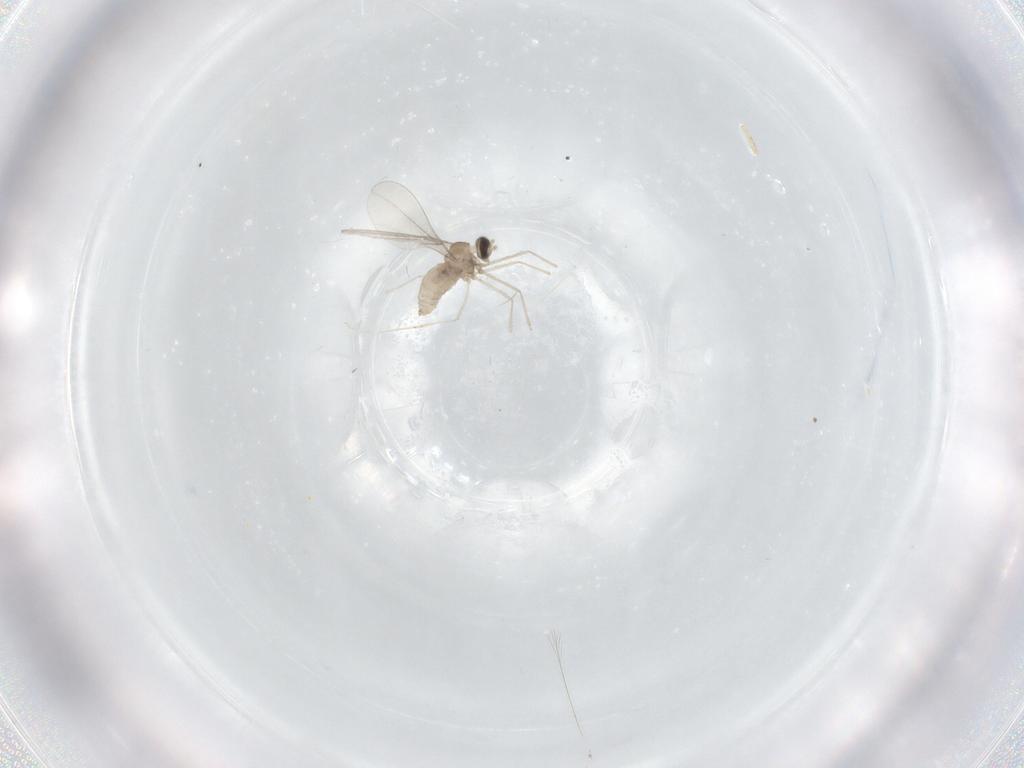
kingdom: Animalia
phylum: Arthropoda
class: Insecta
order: Diptera
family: Cecidomyiidae
